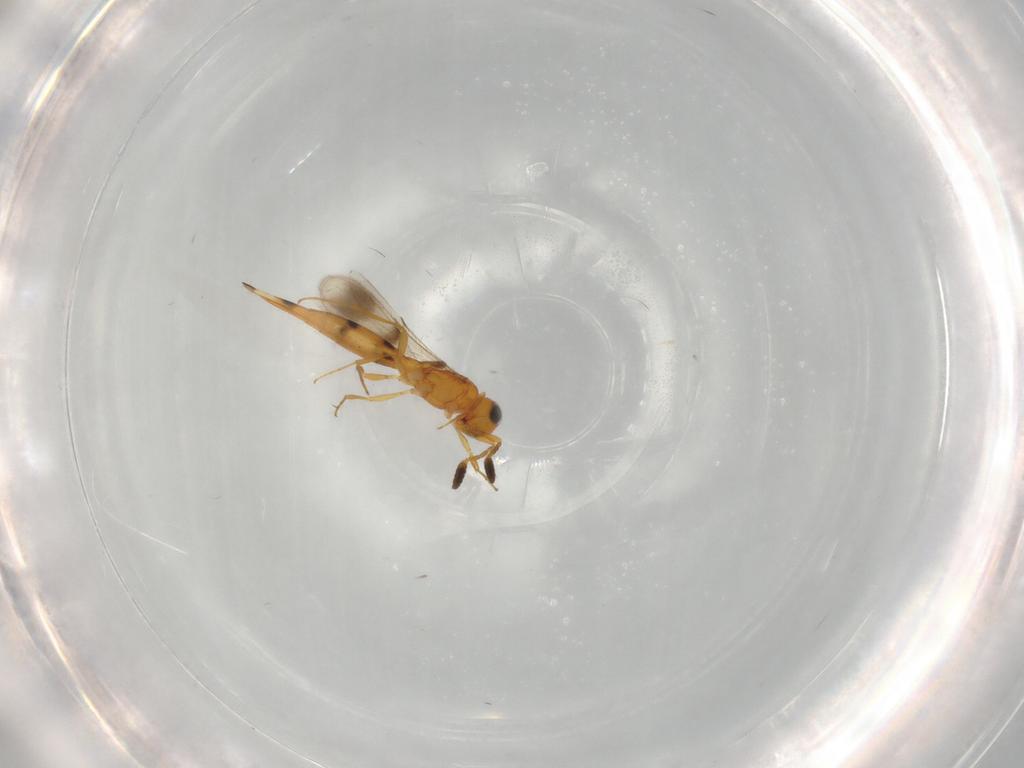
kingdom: Animalia
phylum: Arthropoda
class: Insecta
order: Hymenoptera
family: Scelionidae
